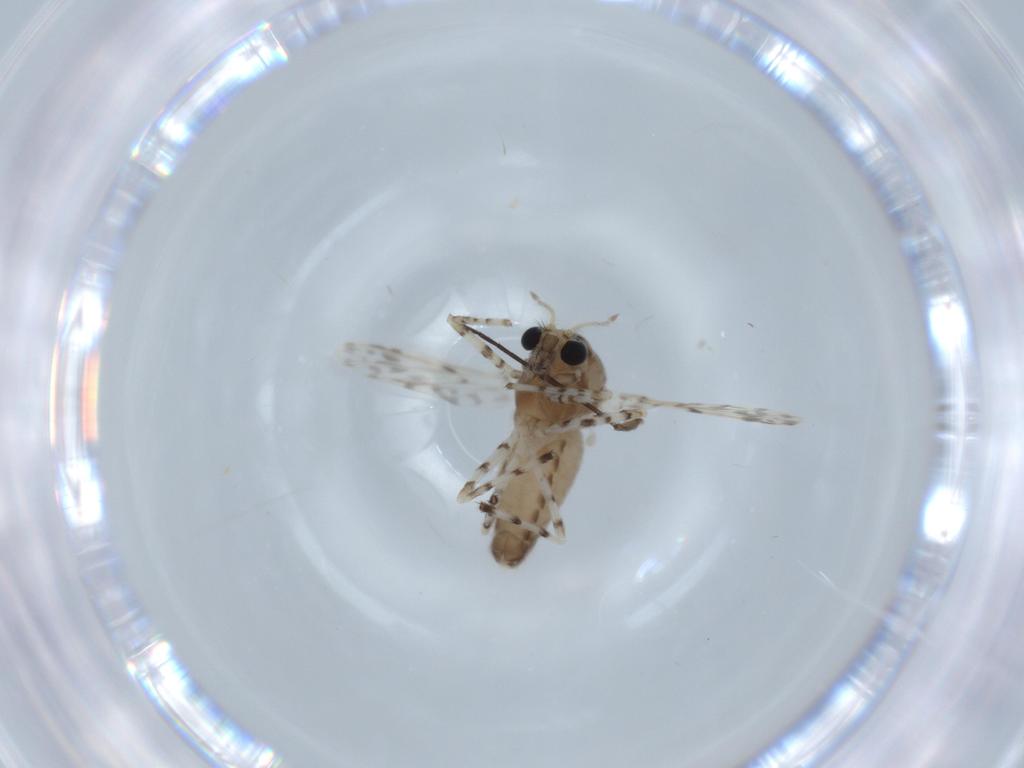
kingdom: Animalia
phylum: Arthropoda
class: Insecta
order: Diptera
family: Chironomidae
